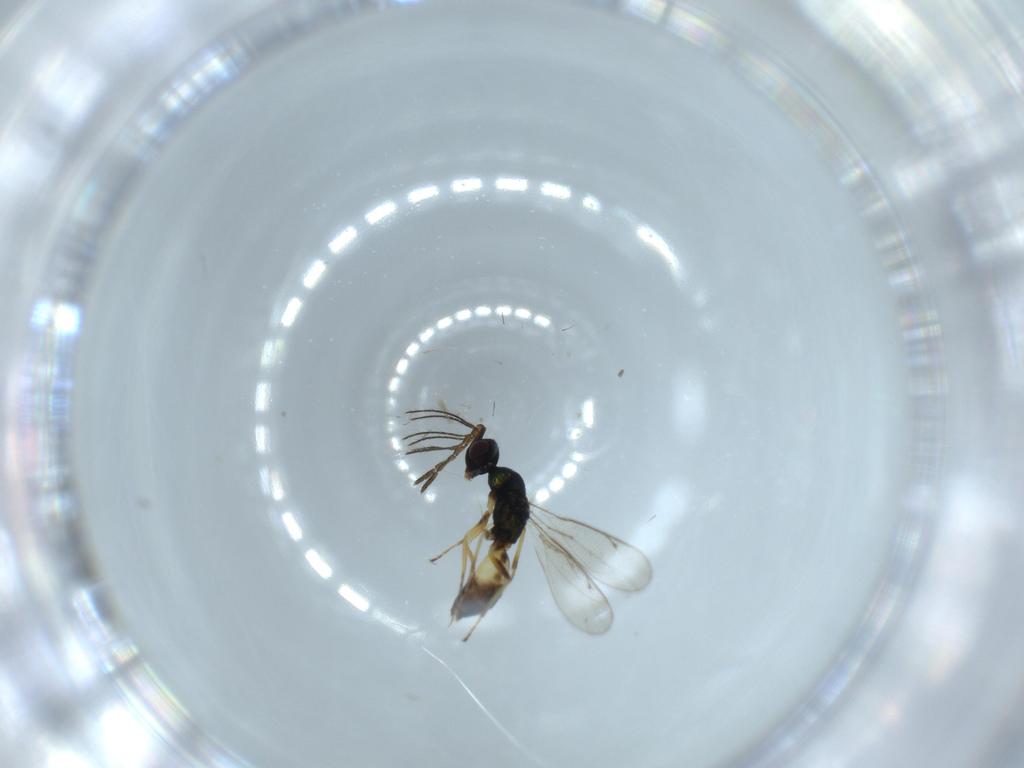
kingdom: Animalia
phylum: Arthropoda
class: Insecta
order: Hymenoptera
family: Eulophidae
